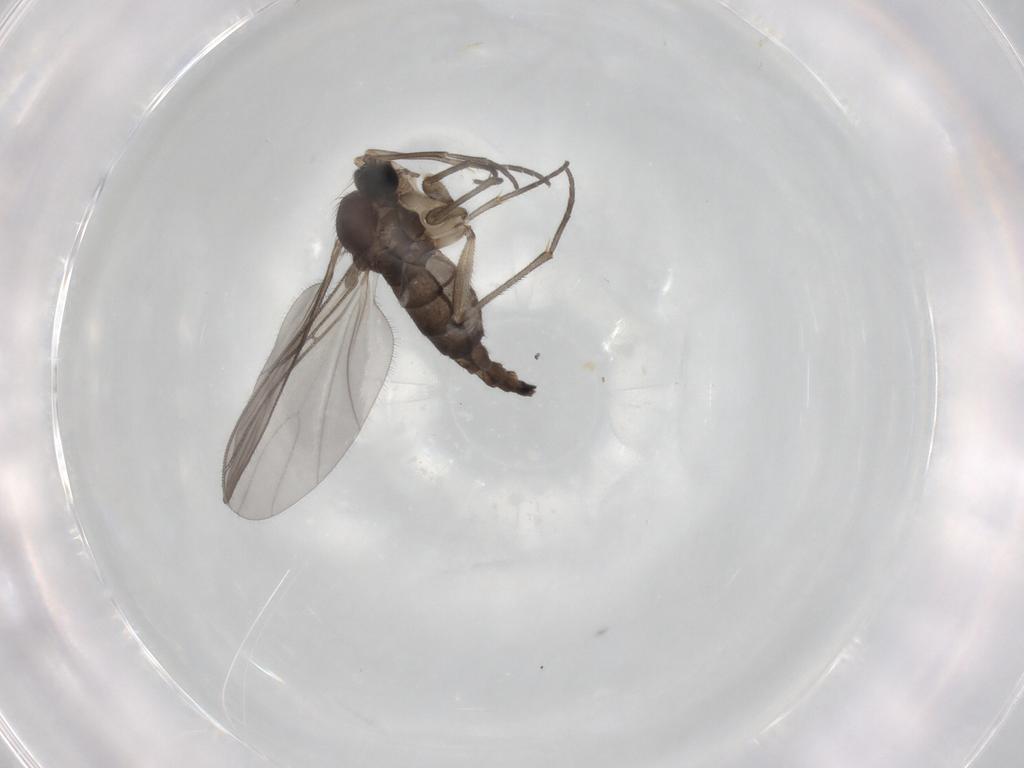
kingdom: Animalia
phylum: Arthropoda
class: Insecta
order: Diptera
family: Sciaridae
